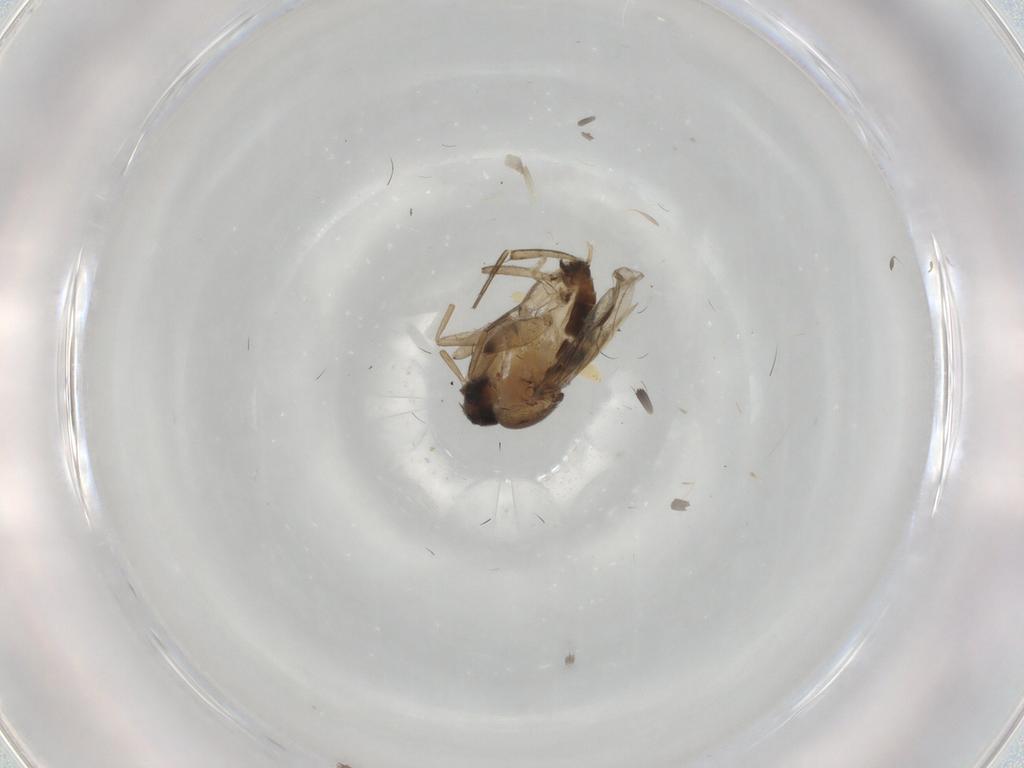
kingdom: Animalia
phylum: Arthropoda
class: Insecta
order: Diptera
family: Phoridae
